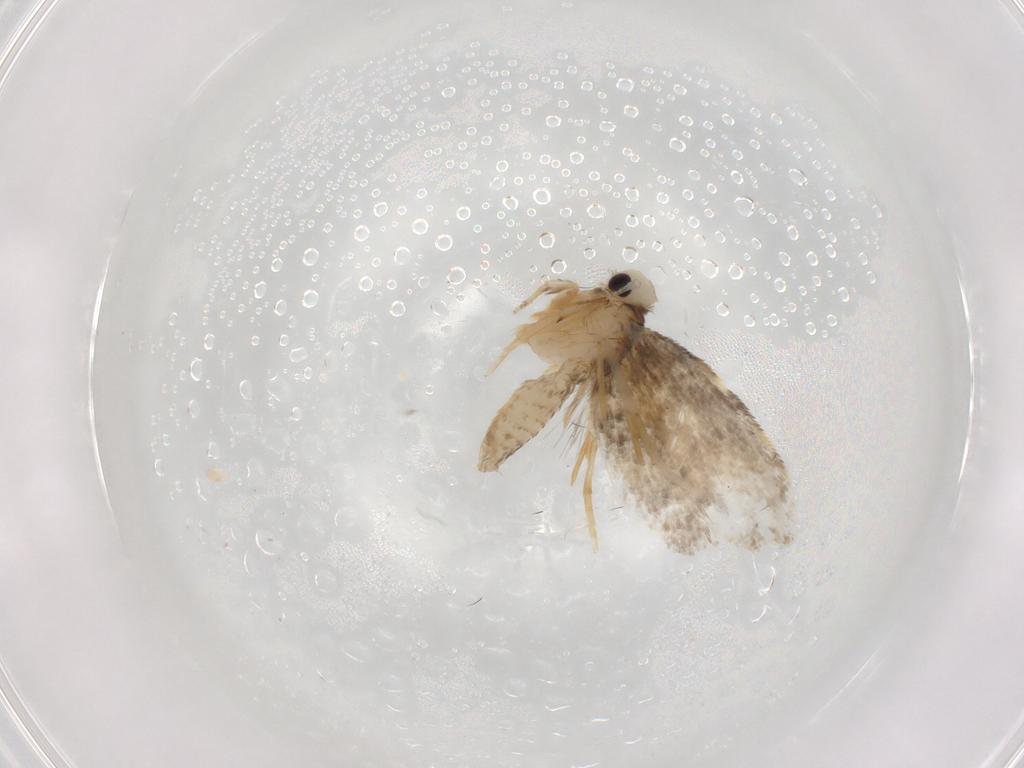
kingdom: Animalia
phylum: Arthropoda
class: Insecta
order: Lepidoptera
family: Psychidae
